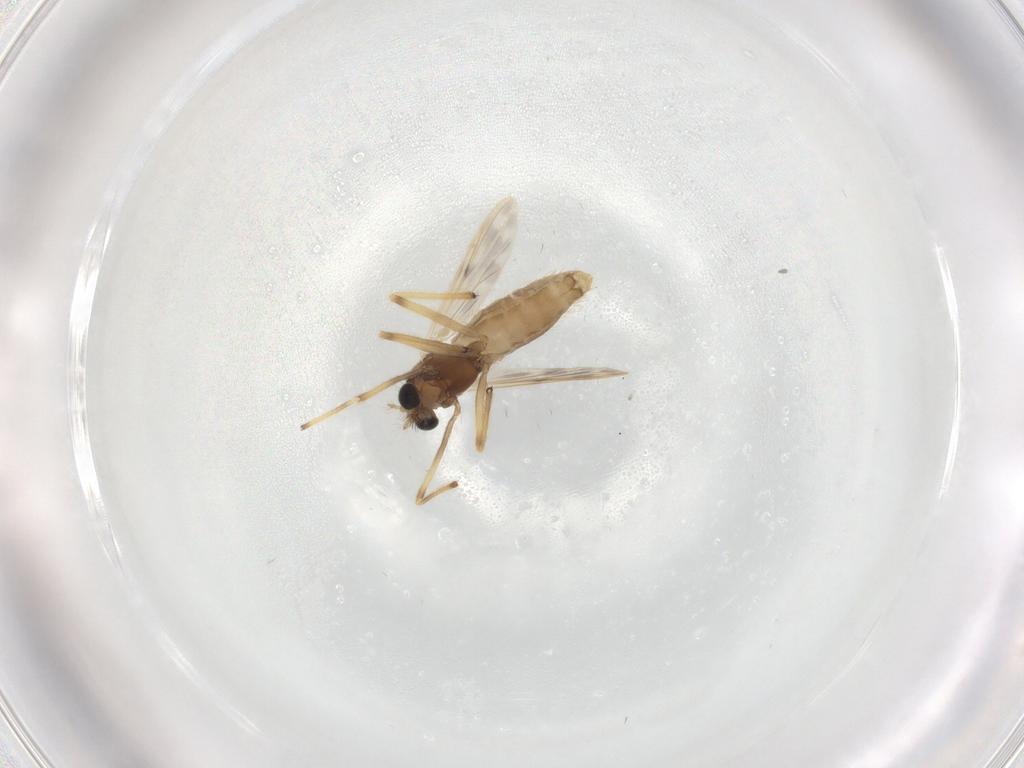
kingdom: Animalia
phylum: Arthropoda
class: Insecta
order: Diptera
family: Chironomidae
